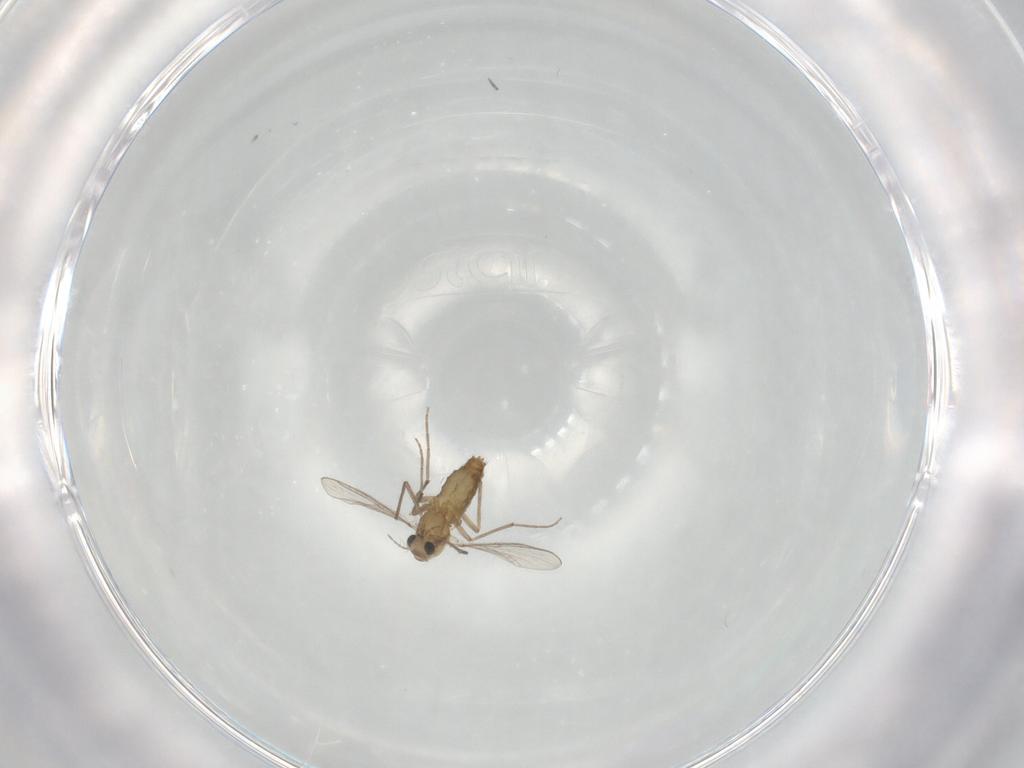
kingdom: Animalia
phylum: Arthropoda
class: Insecta
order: Diptera
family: Chironomidae
